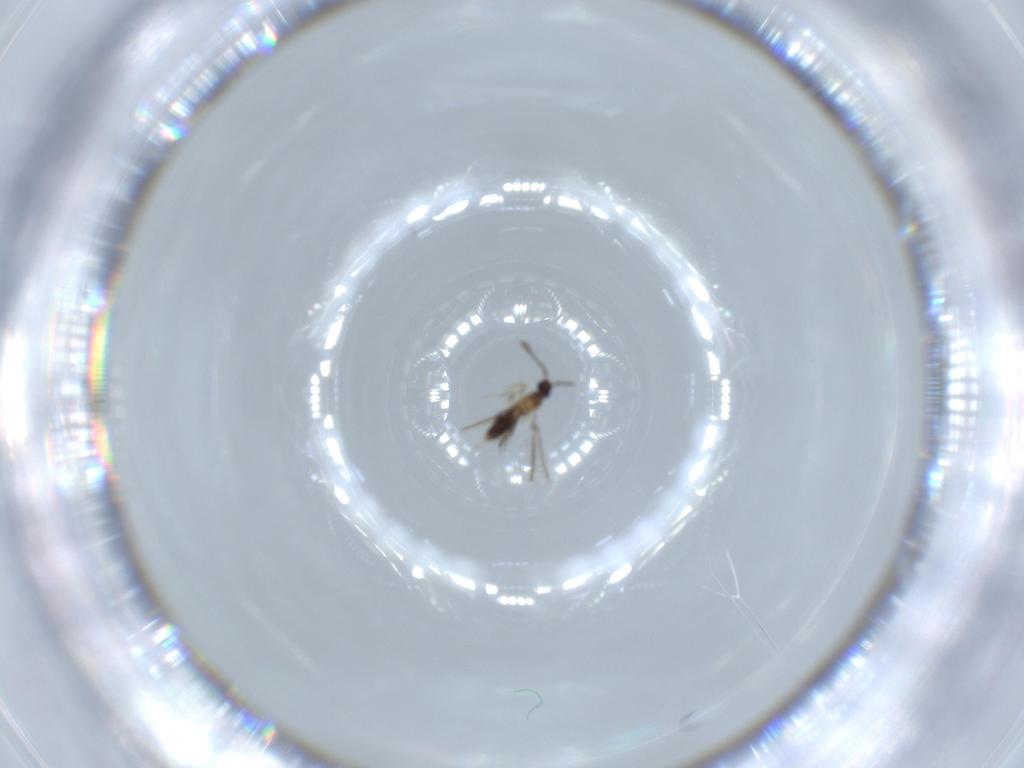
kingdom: Animalia
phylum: Arthropoda
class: Insecta
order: Hymenoptera
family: Mymaridae
